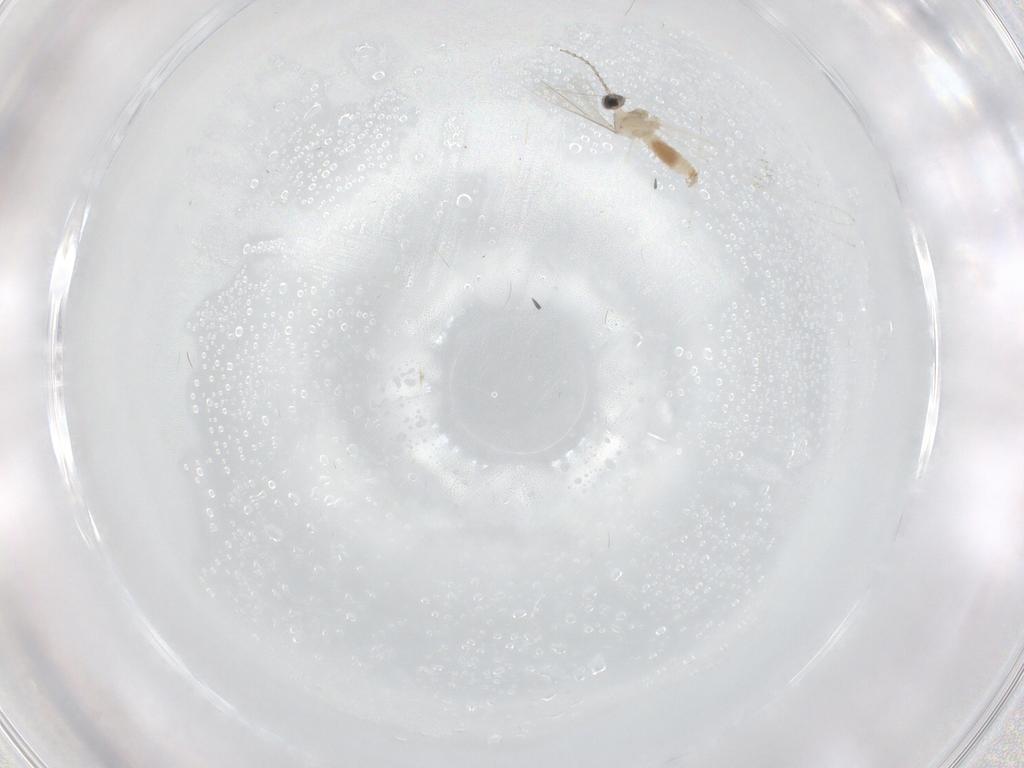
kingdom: Animalia
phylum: Arthropoda
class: Insecta
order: Diptera
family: Cecidomyiidae
